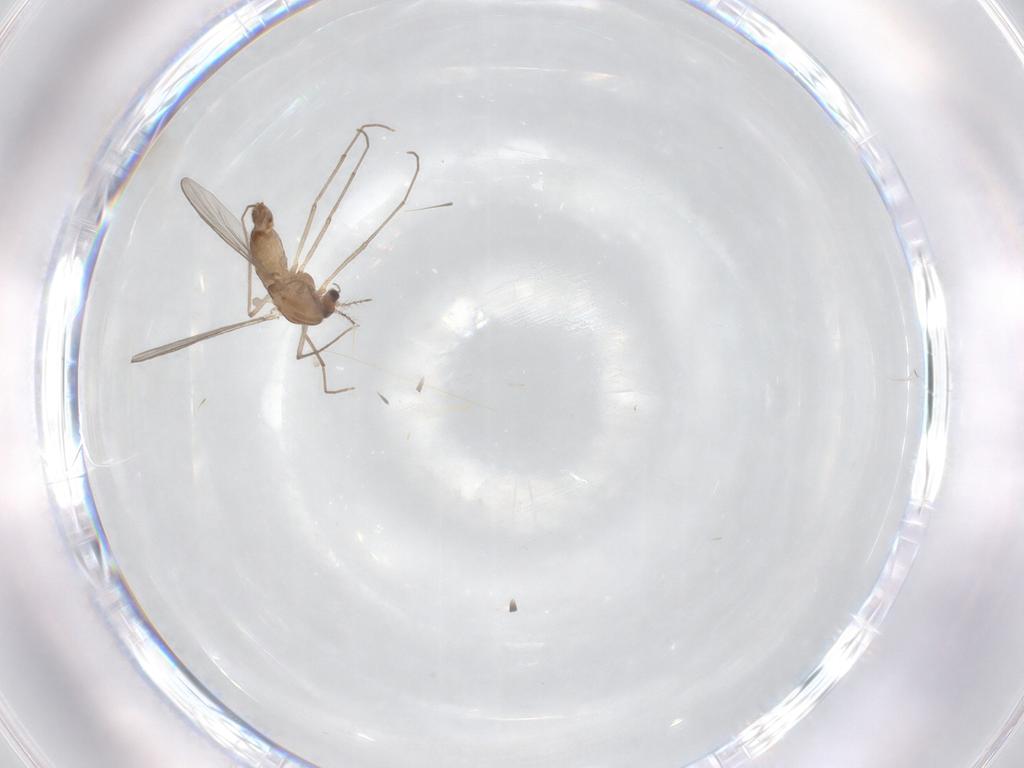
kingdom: Animalia
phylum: Arthropoda
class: Insecta
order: Diptera
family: Chironomidae
